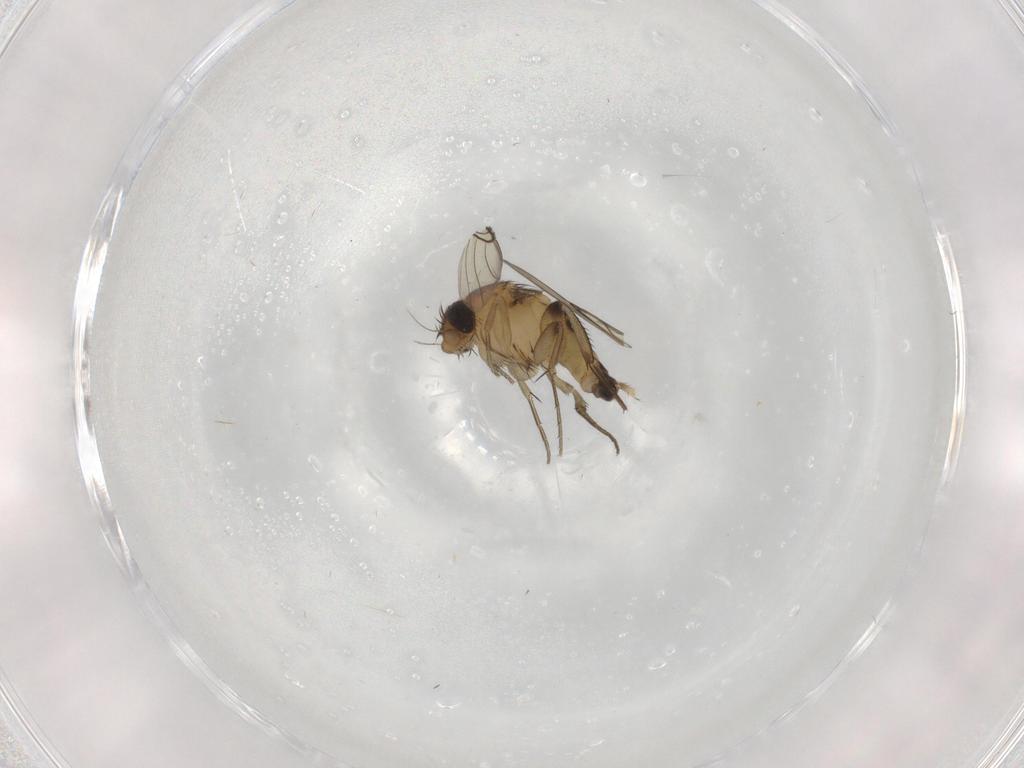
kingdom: Animalia
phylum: Arthropoda
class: Insecta
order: Diptera
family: Phoridae
